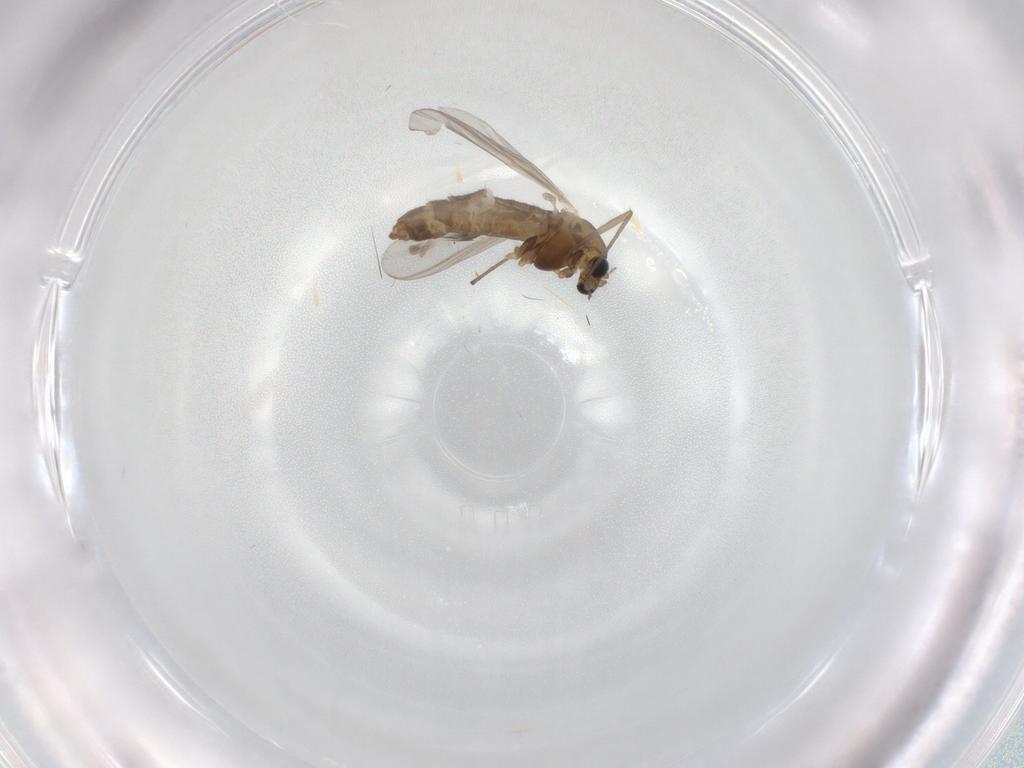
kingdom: Animalia
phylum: Arthropoda
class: Insecta
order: Diptera
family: Chironomidae
